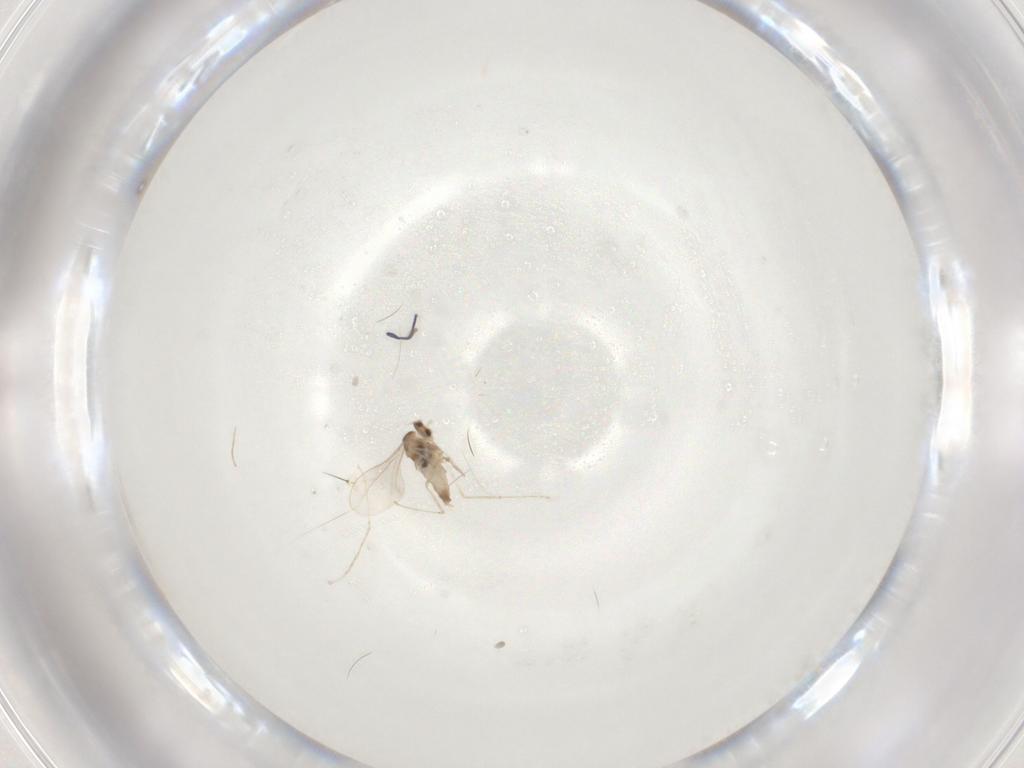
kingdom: Animalia
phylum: Arthropoda
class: Insecta
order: Diptera
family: Cecidomyiidae
